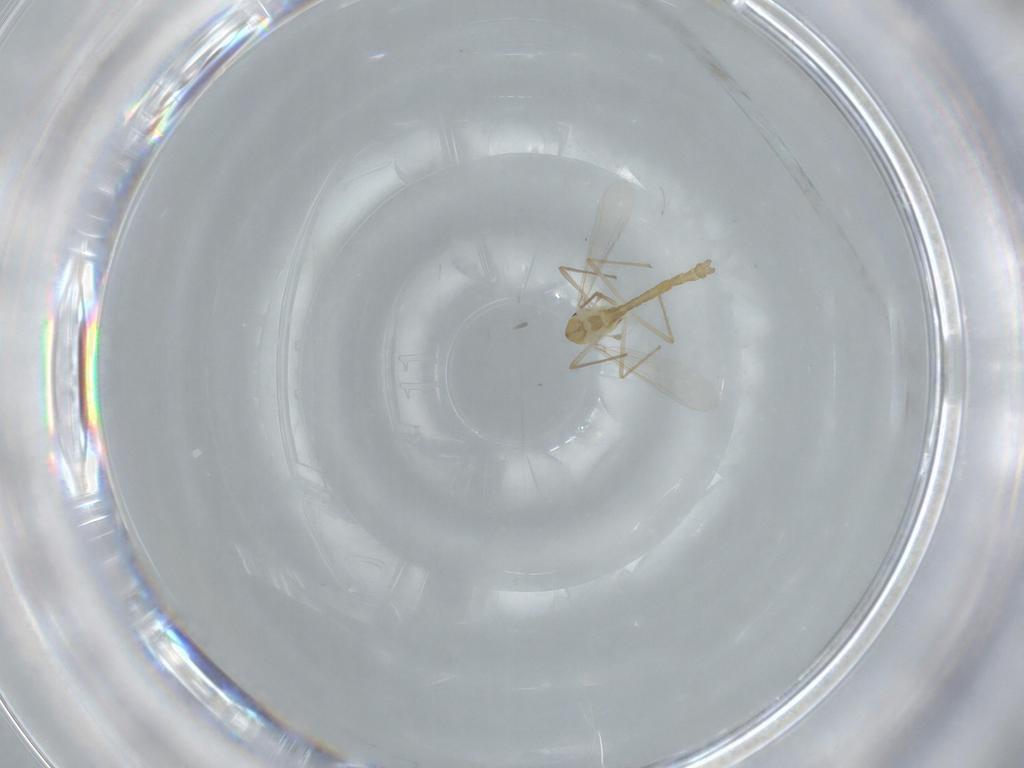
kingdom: Animalia
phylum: Arthropoda
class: Insecta
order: Diptera
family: Chironomidae
